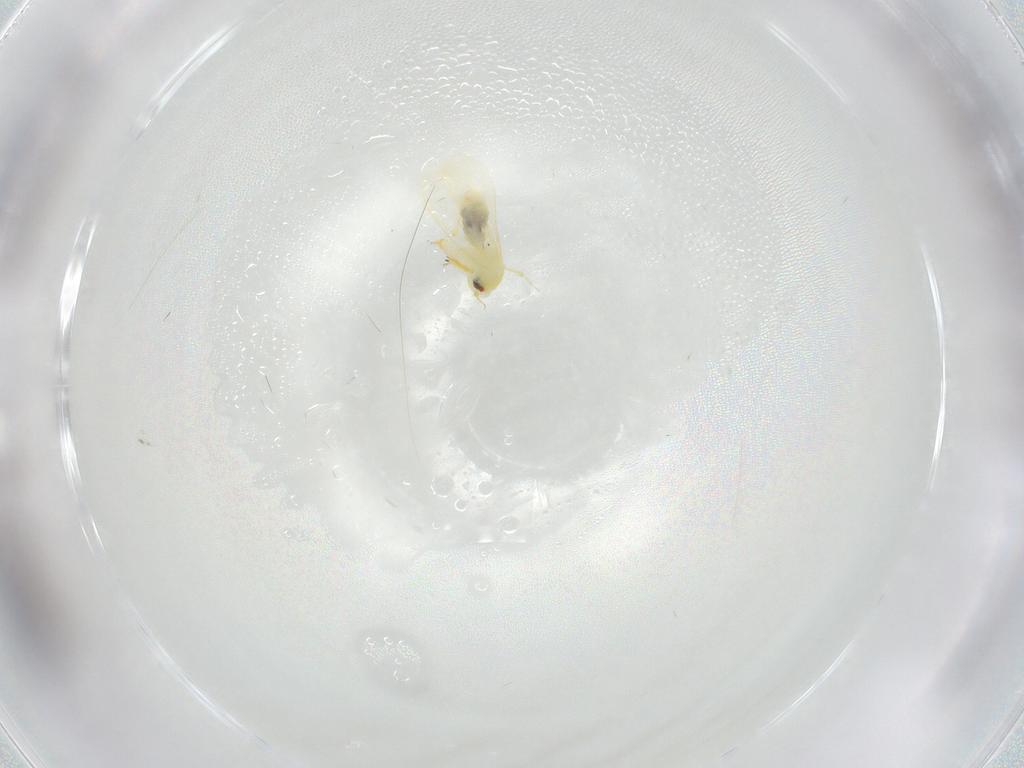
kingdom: Animalia
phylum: Arthropoda
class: Insecta
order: Hemiptera
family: Aleyrodidae
